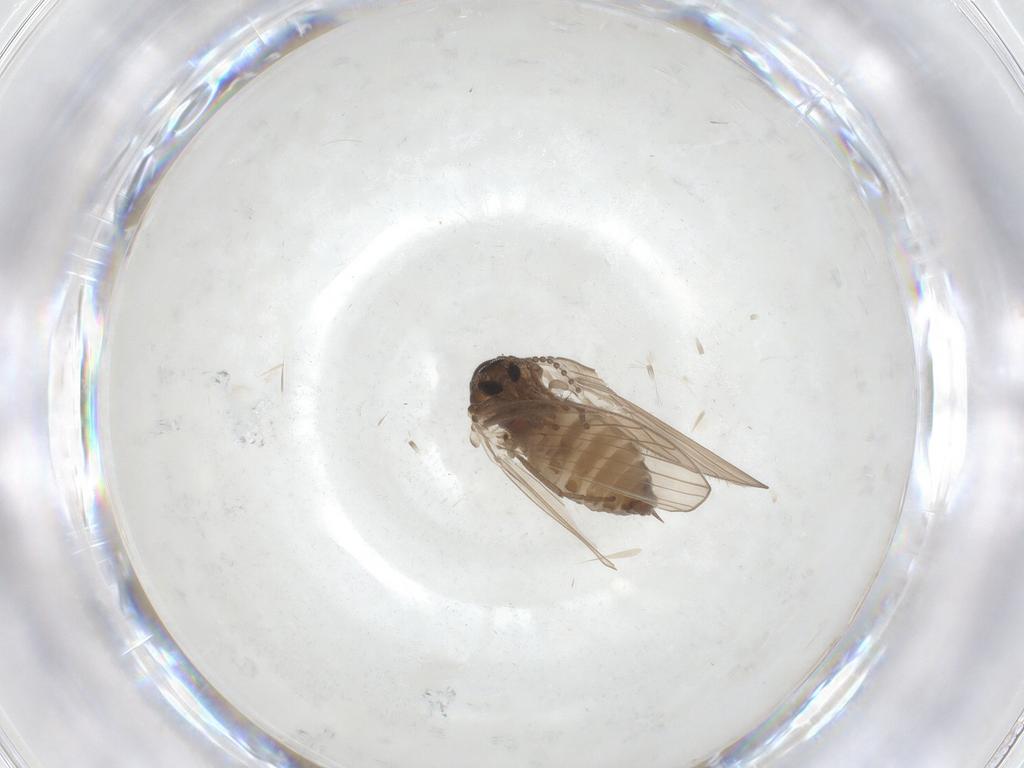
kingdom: Animalia
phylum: Arthropoda
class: Insecta
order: Diptera
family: Psychodidae
